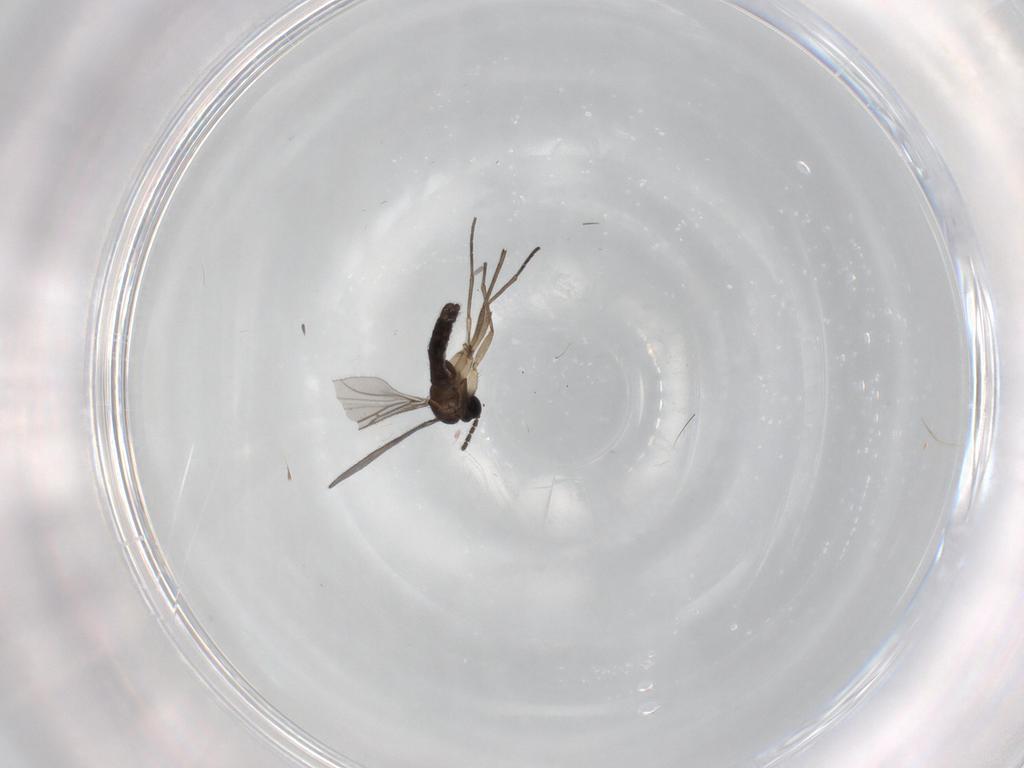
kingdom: Animalia
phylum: Arthropoda
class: Insecta
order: Diptera
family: Sciaridae
